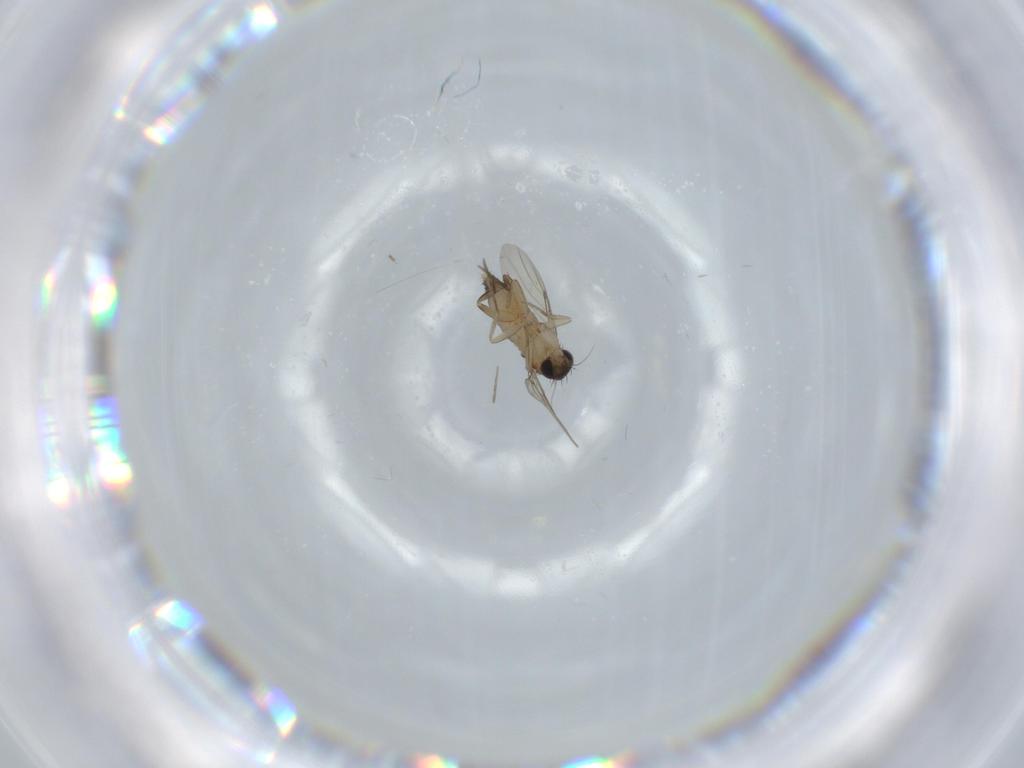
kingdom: Animalia
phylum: Arthropoda
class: Insecta
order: Diptera
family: Phoridae
